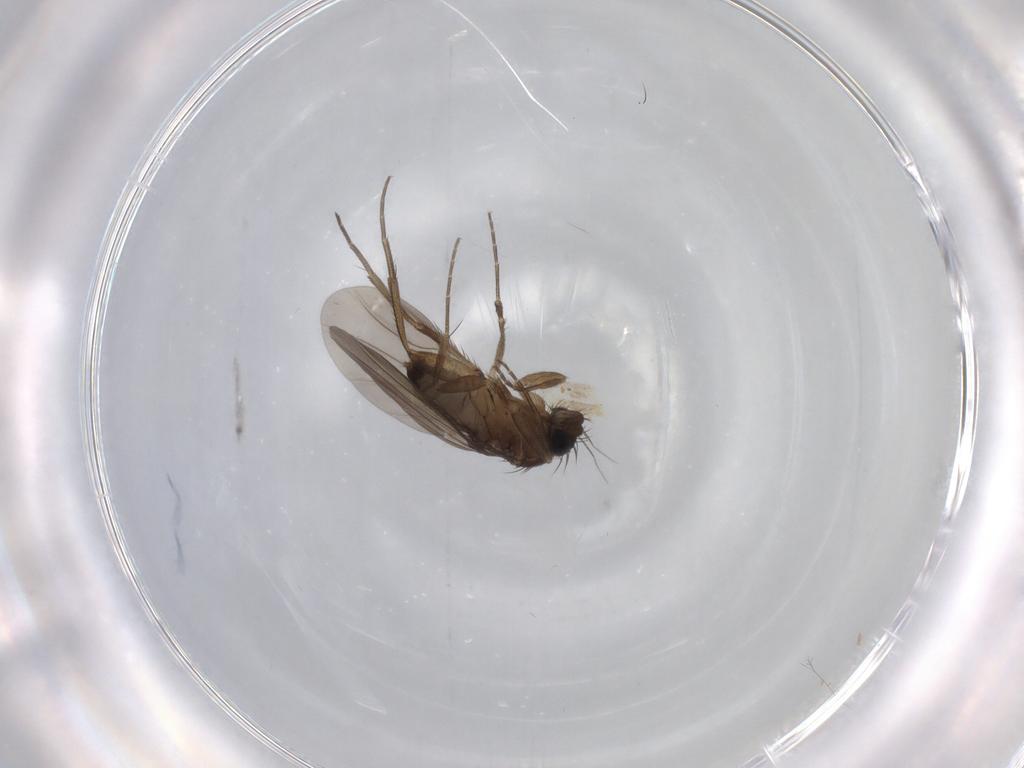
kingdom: Animalia
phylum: Arthropoda
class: Insecta
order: Diptera
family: Phoridae
